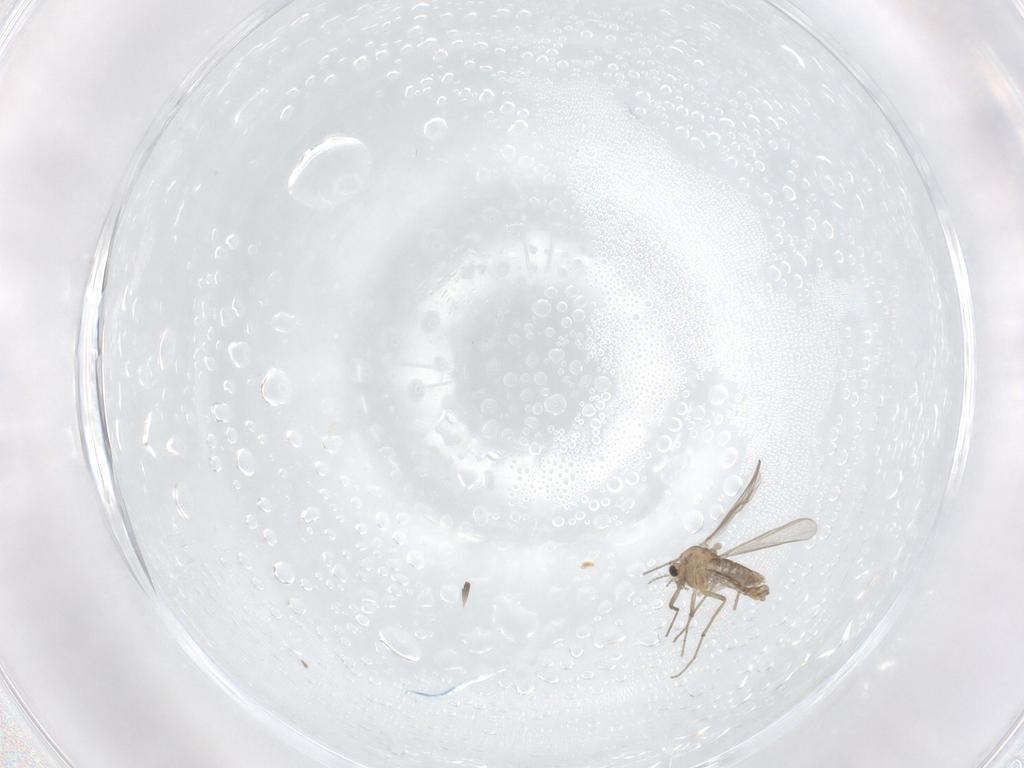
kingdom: Animalia
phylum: Arthropoda
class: Insecta
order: Diptera
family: Chironomidae
